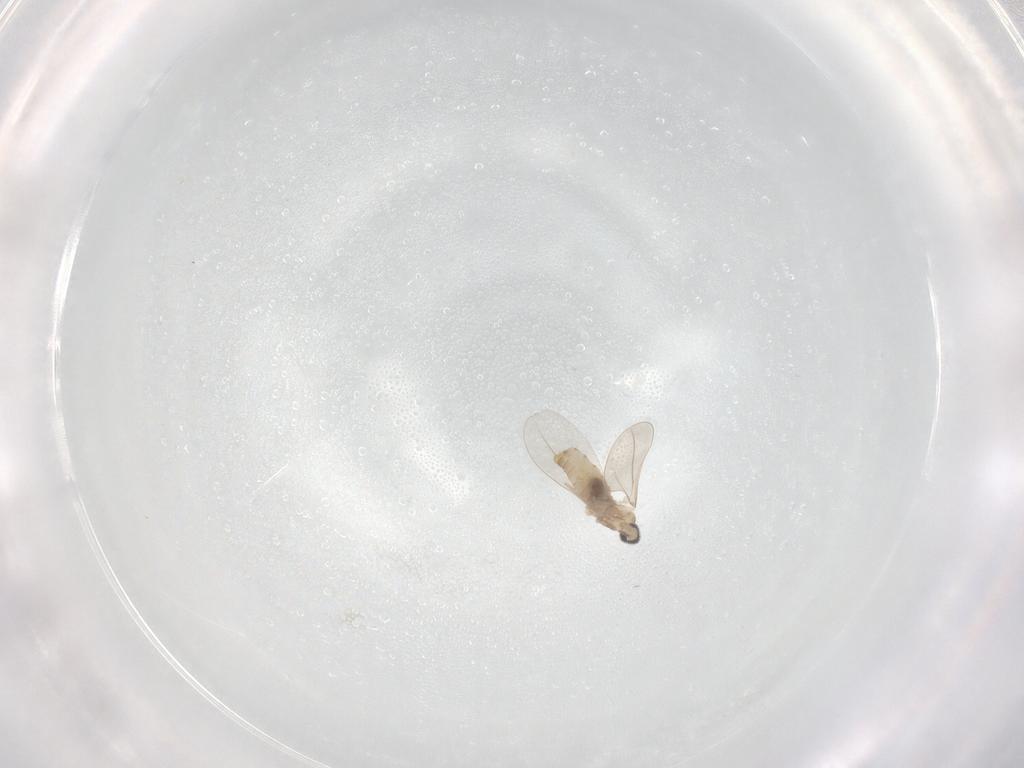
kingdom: Animalia
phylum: Arthropoda
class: Insecta
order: Diptera
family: Cecidomyiidae
